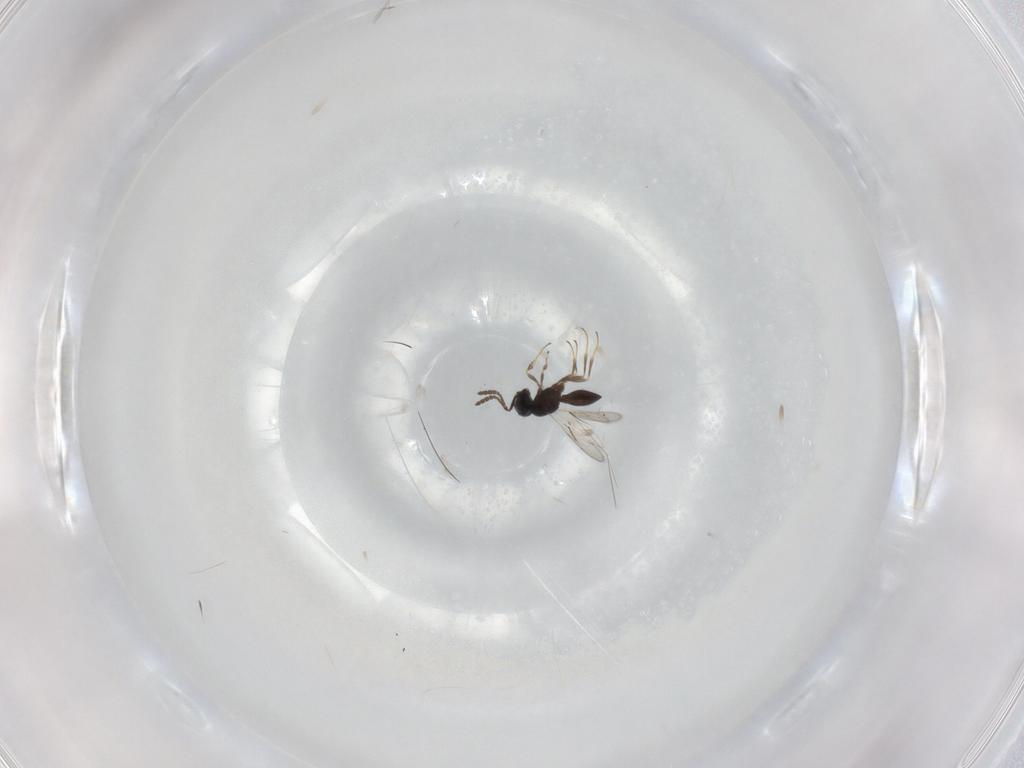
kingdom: Animalia
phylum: Arthropoda
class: Insecta
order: Hymenoptera
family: Scelionidae
